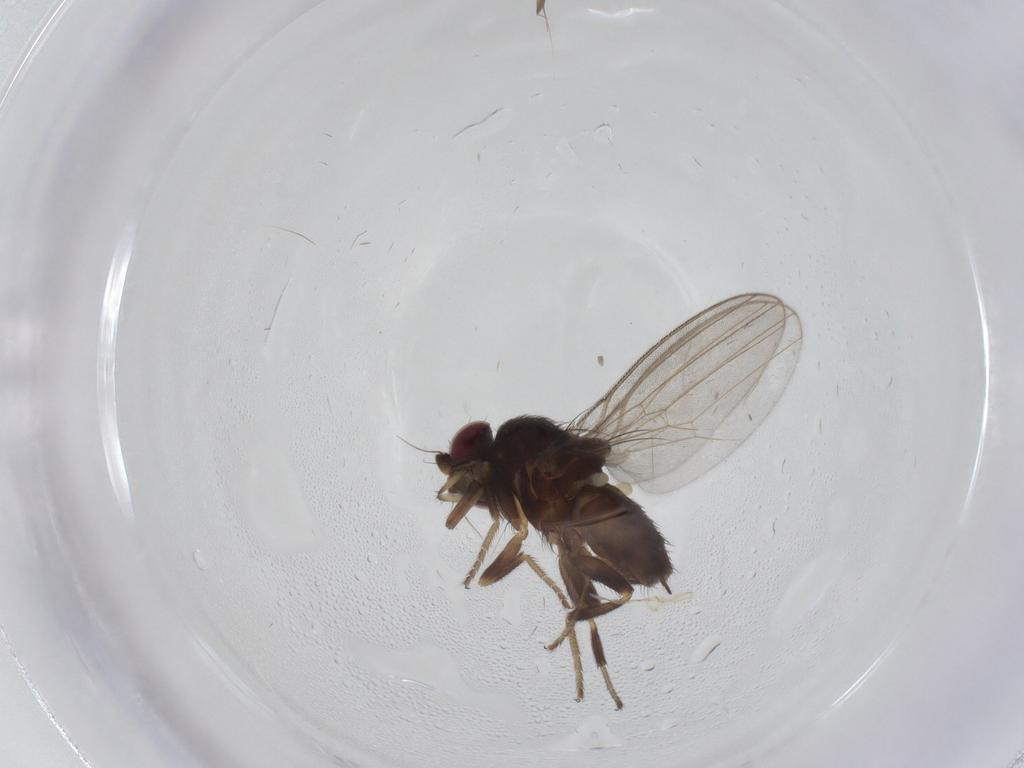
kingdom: Animalia
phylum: Arthropoda
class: Insecta
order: Diptera
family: Milichiidae
